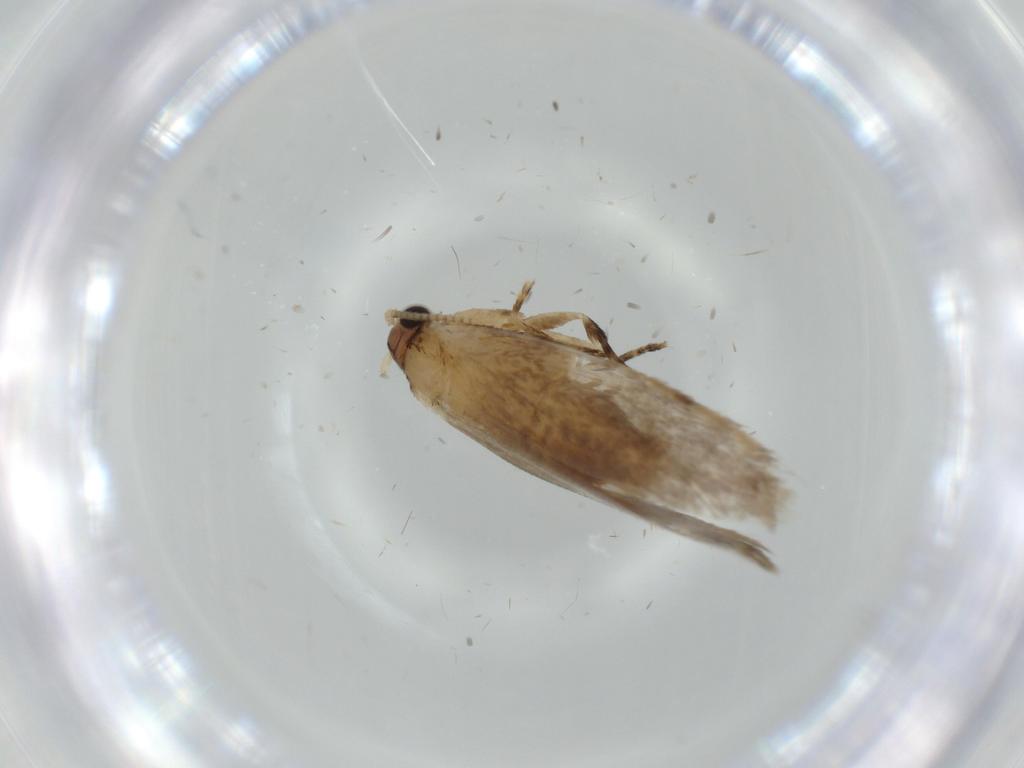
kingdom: Animalia
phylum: Arthropoda
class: Insecta
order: Lepidoptera
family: Tineidae
